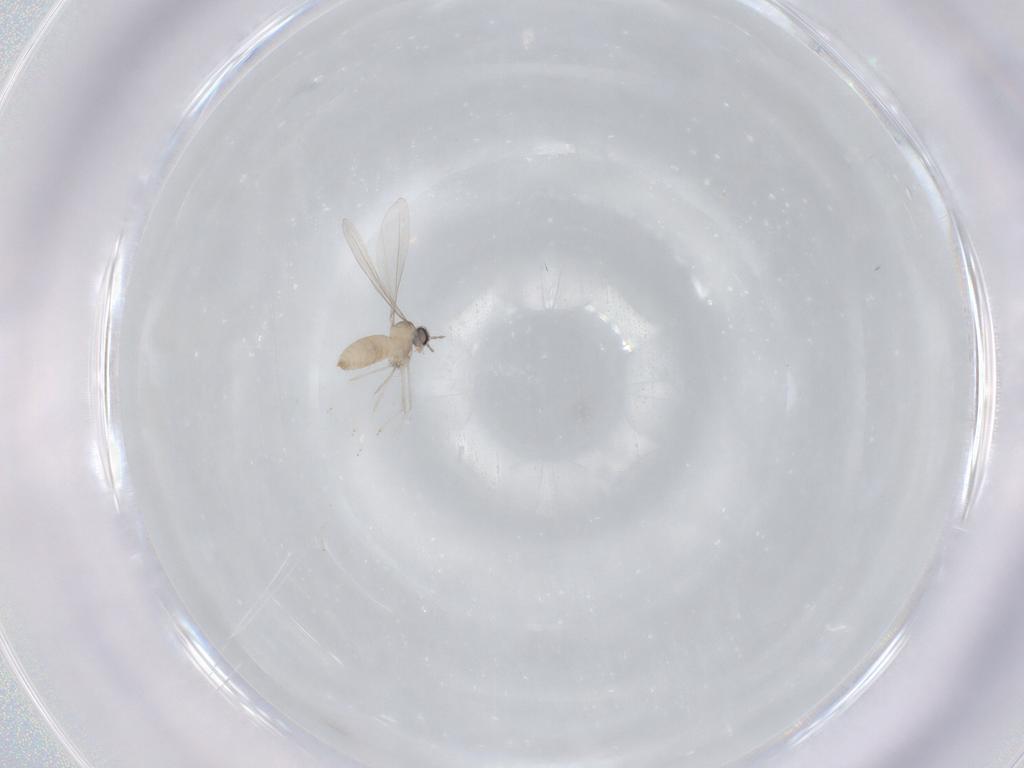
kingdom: Animalia
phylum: Arthropoda
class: Insecta
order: Diptera
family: Cecidomyiidae
